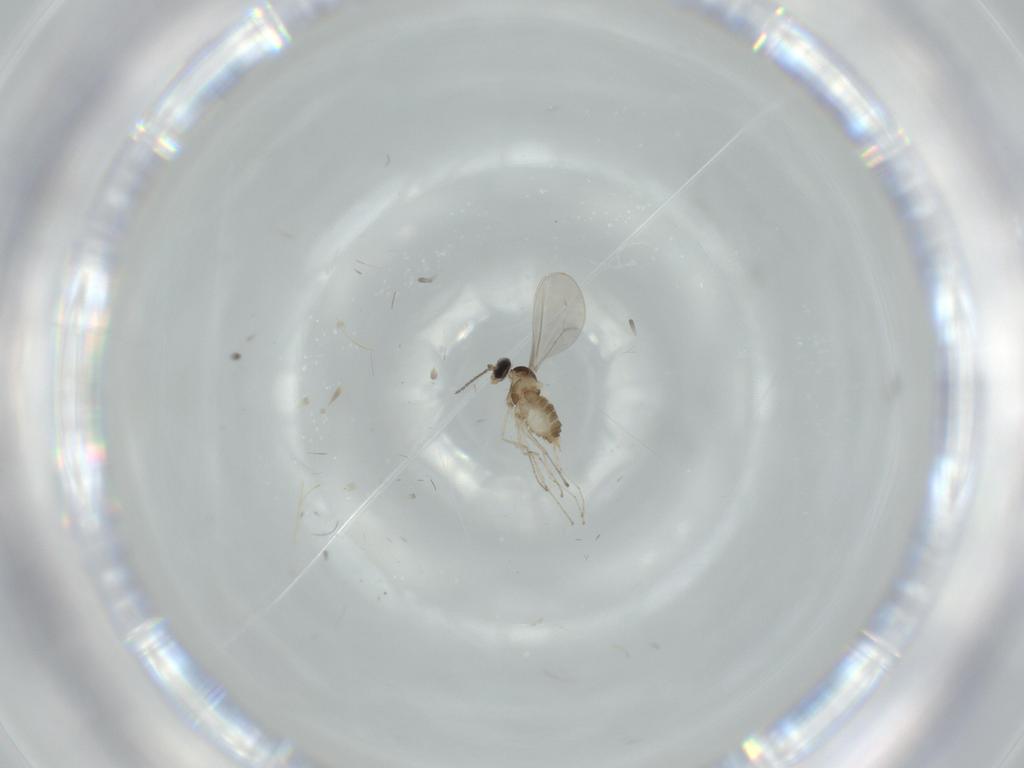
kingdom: Animalia
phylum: Arthropoda
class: Insecta
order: Diptera
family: Cecidomyiidae
